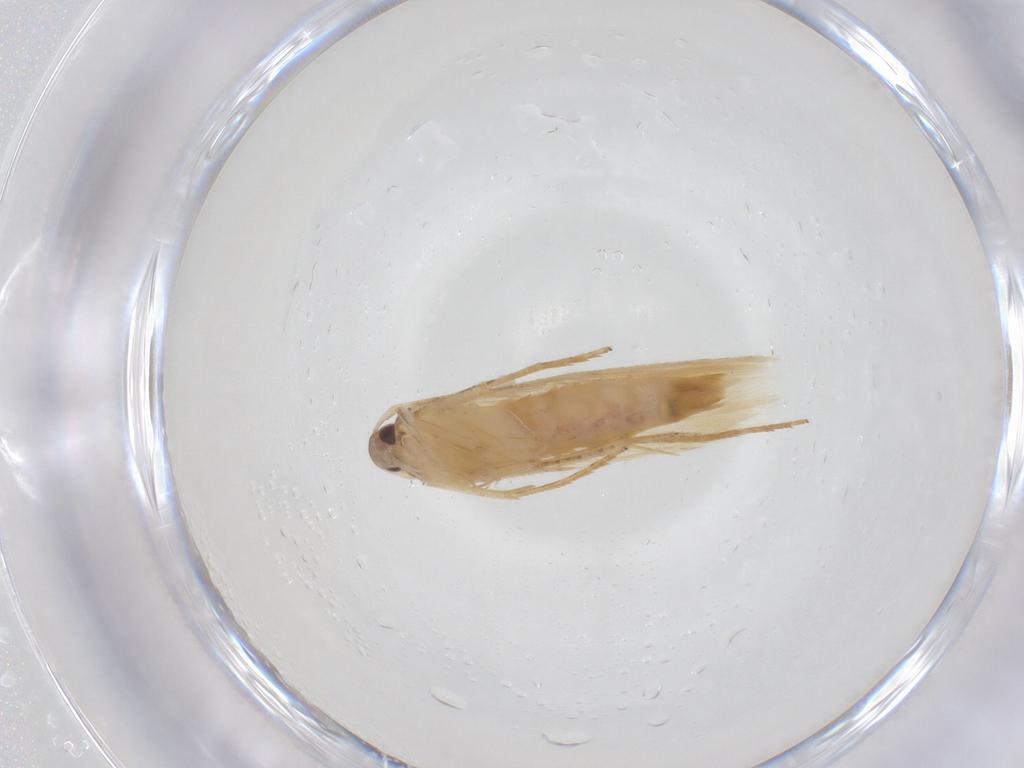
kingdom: Animalia
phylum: Arthropoda
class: Insecta
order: Lepidoptera
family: Cosmopterigidae
